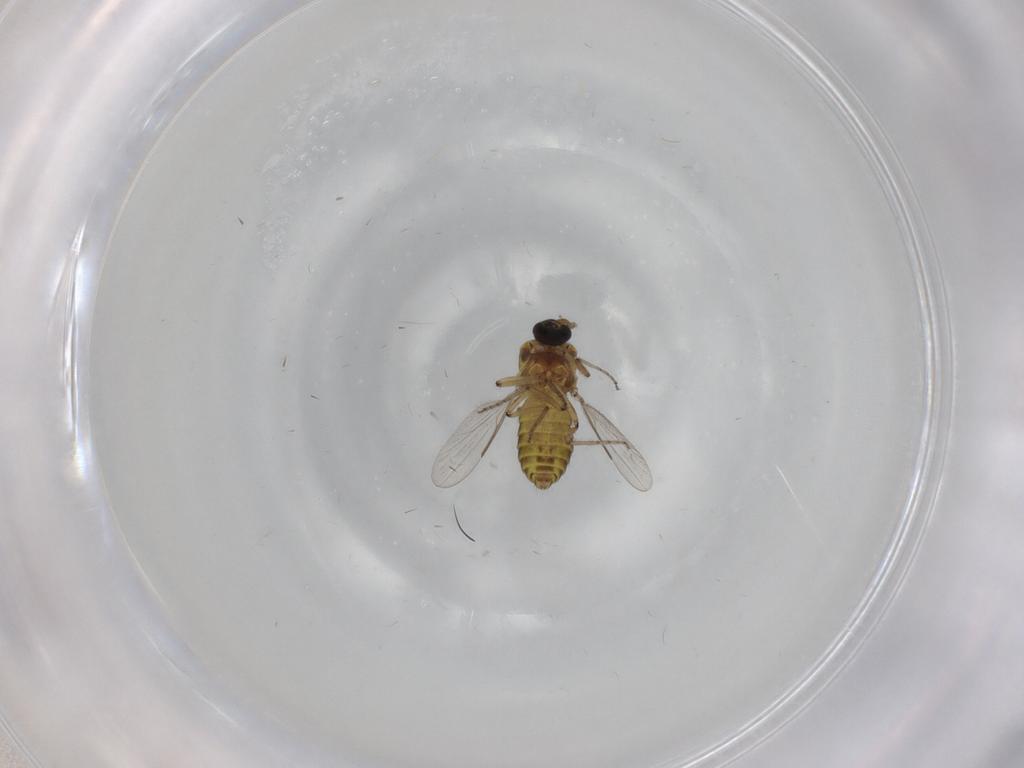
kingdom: Animalia
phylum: Arthropoda
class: Insecta
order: Diptera
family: Ceratopogonidae
